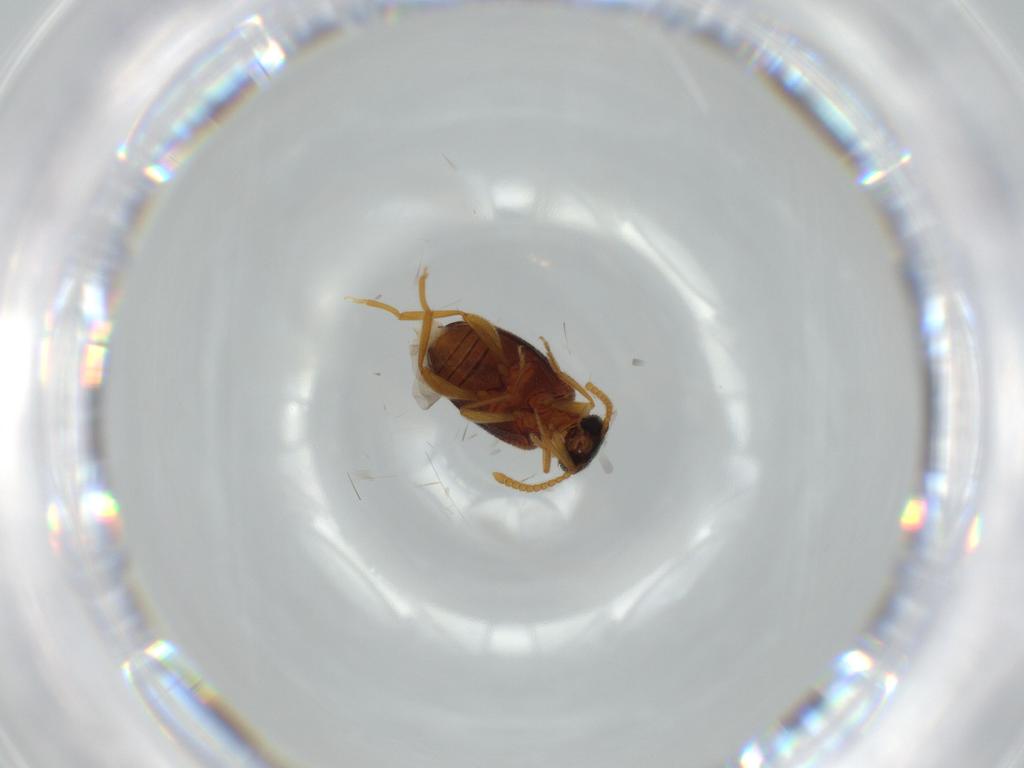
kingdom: Animalia
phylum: Arthropoda
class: Insecta
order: Coleoptera
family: Aderidae
